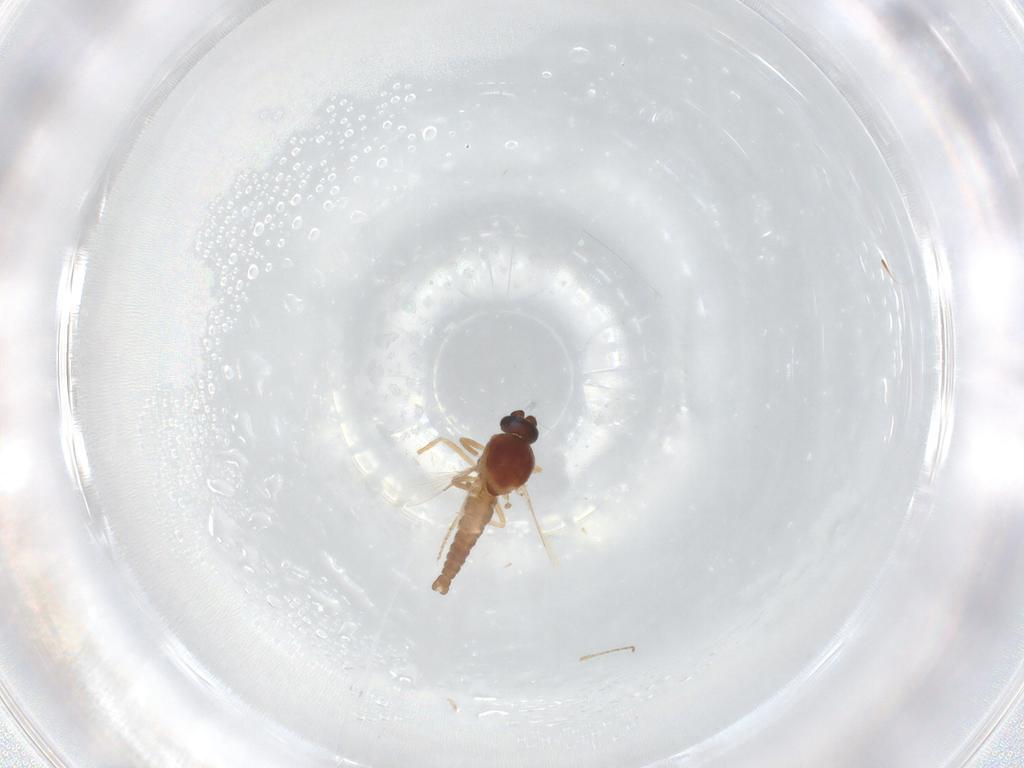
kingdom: Animalia
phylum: Arthropoda
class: Insecta
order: Diptera
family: Ceratopogonidae
